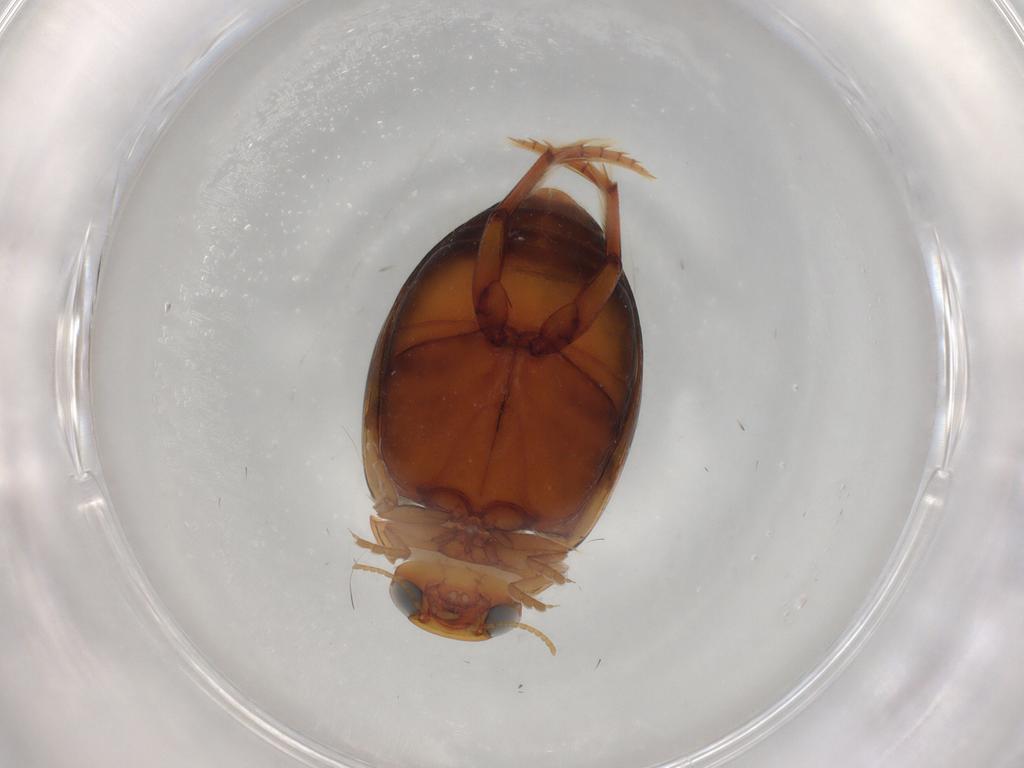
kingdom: Animalia
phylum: Arthropoda
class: Insecta
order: Coleoptera
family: Dytiscidae
